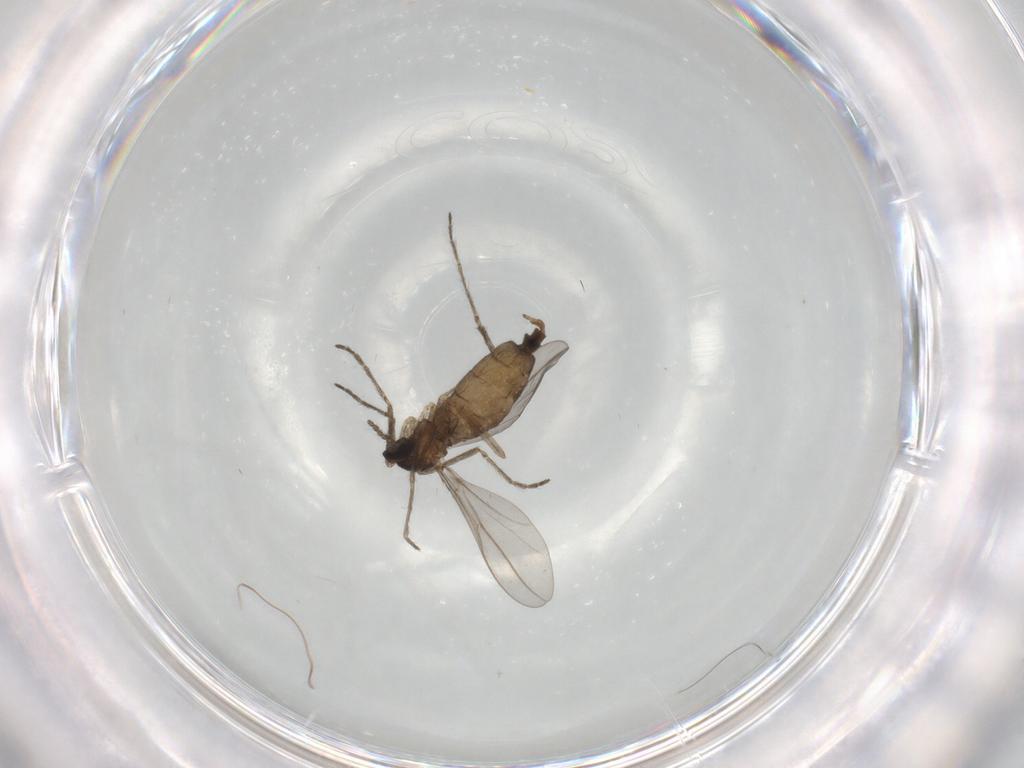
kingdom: Animalia
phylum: Arthropoda
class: Insecta
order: Diptera
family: Cecidomyiidae
